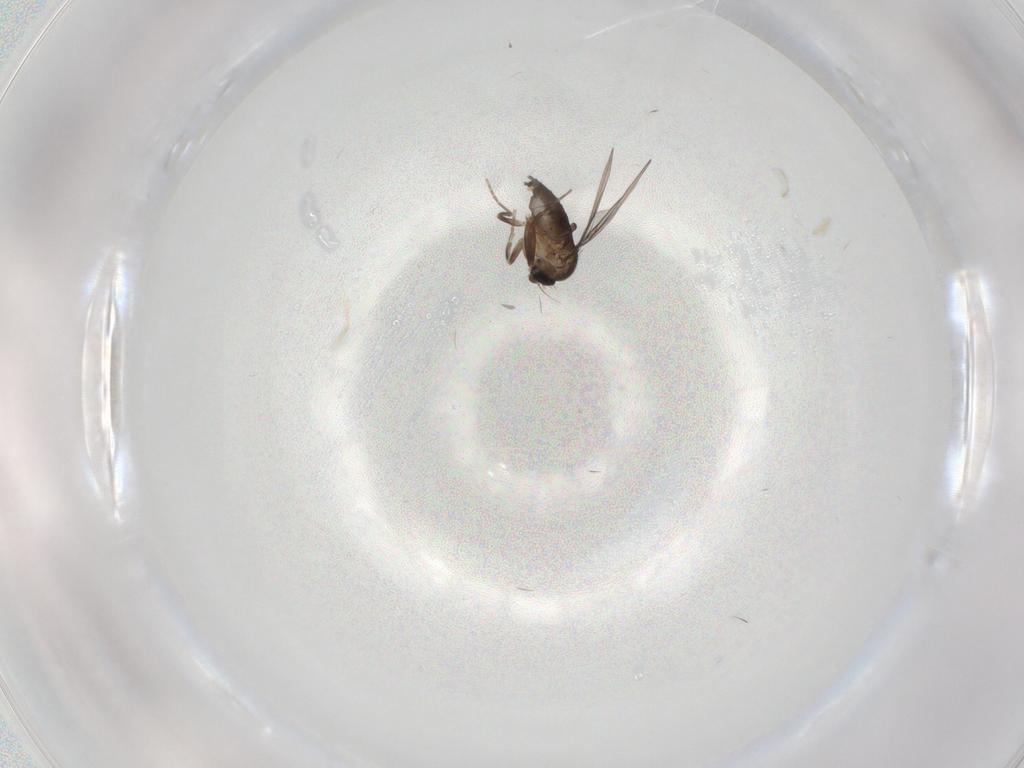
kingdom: Animalia
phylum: Arthropoda
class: Insecta
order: Diptera
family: Phoridae
